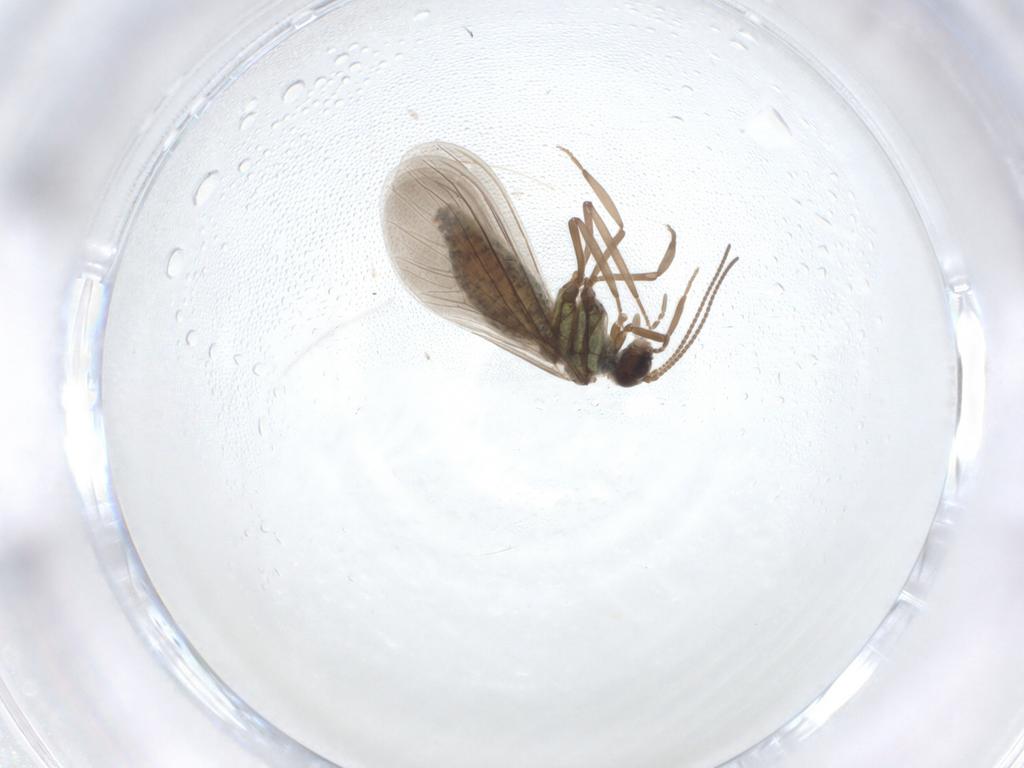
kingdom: Animalia
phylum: Arthropoda
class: Insecta
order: Neuroptera
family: Coniopterygidae
